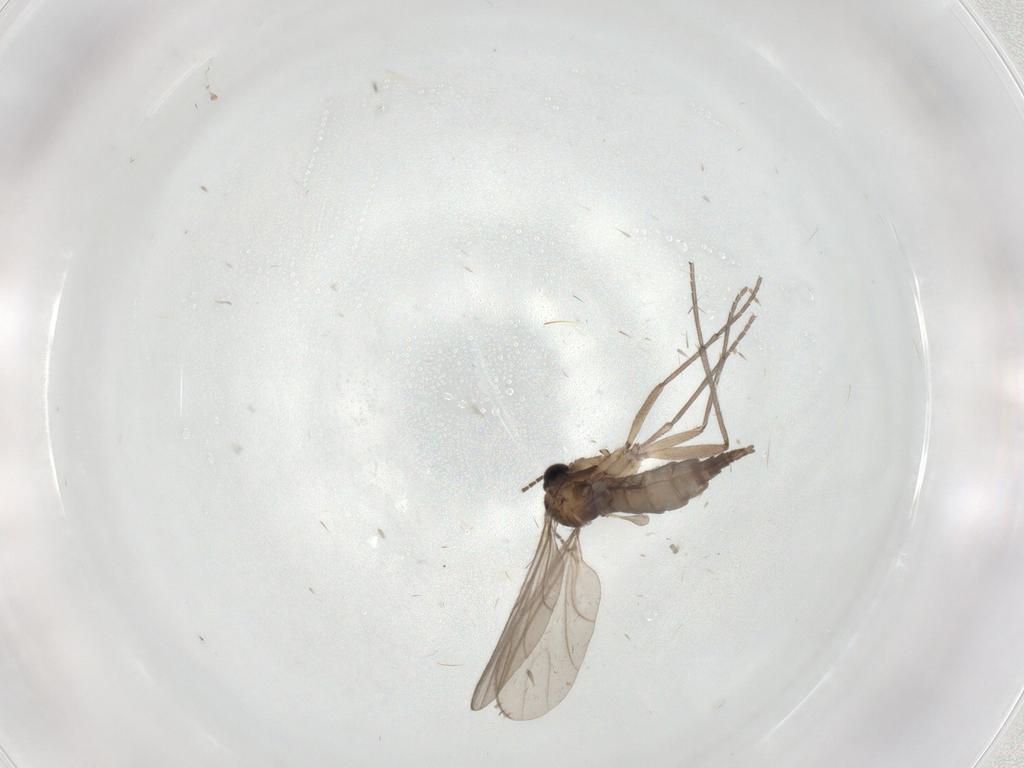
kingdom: Animalia
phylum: Arthropoda
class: Insecta
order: Diptera
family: Sciaridae
